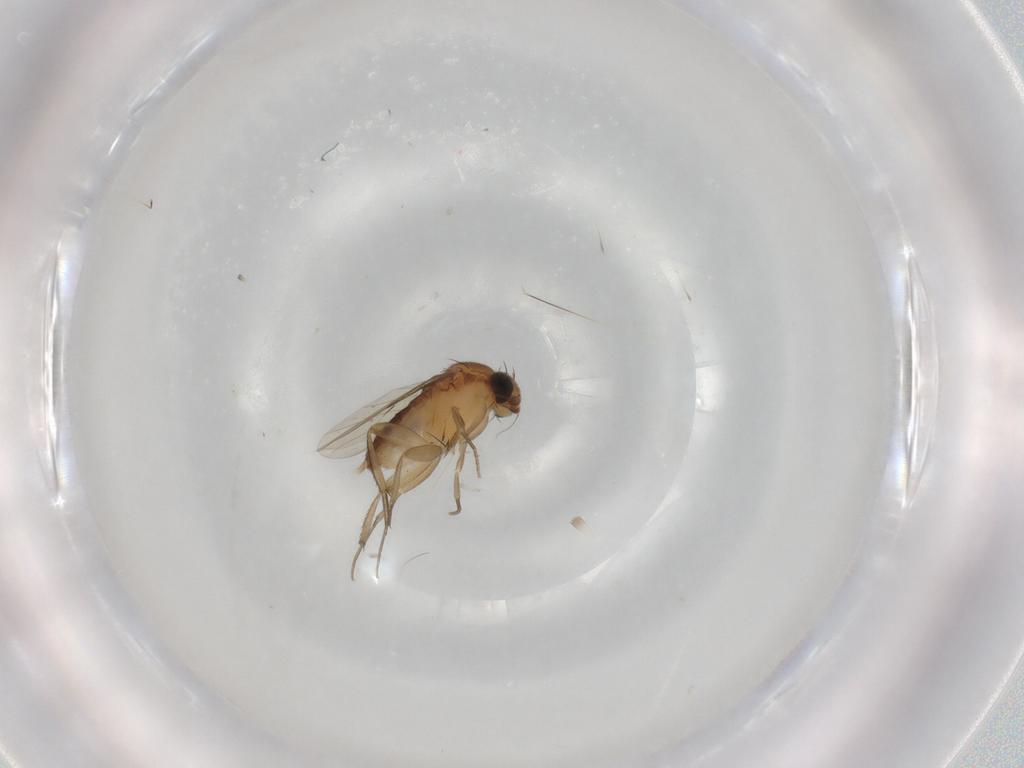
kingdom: Animalia
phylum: Arthropoda
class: Insecta
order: Diptera
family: Phoridae
